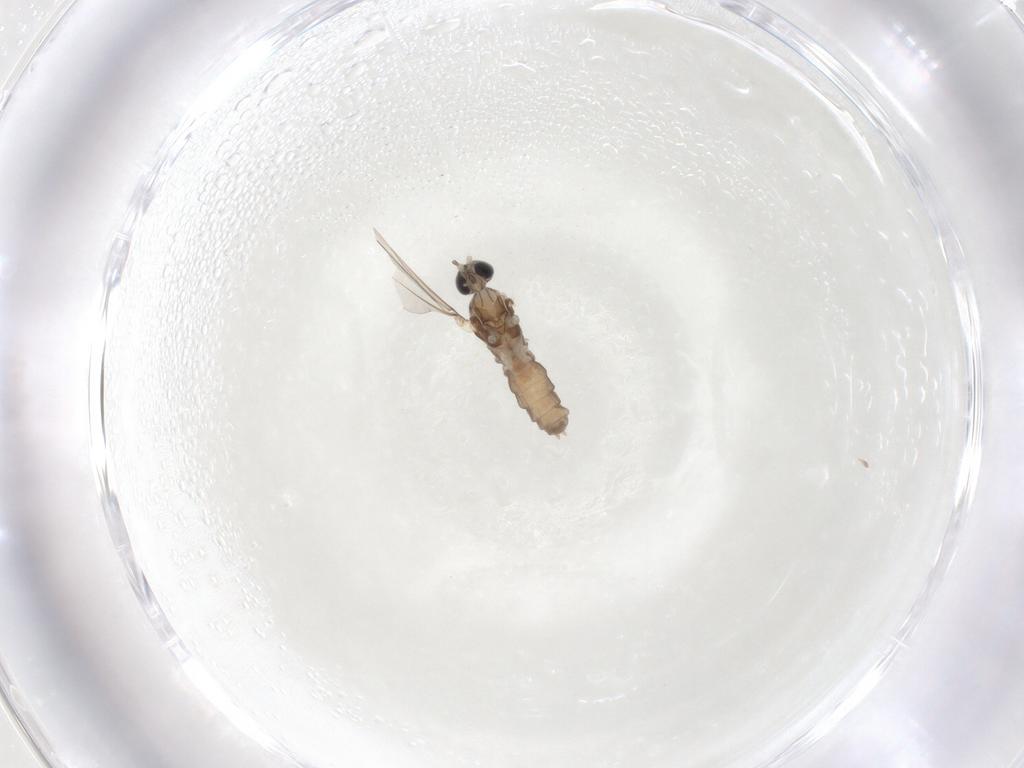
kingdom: Animalia
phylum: Arthropoda
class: Insecta
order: Diptera
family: Cecidomyiidae
